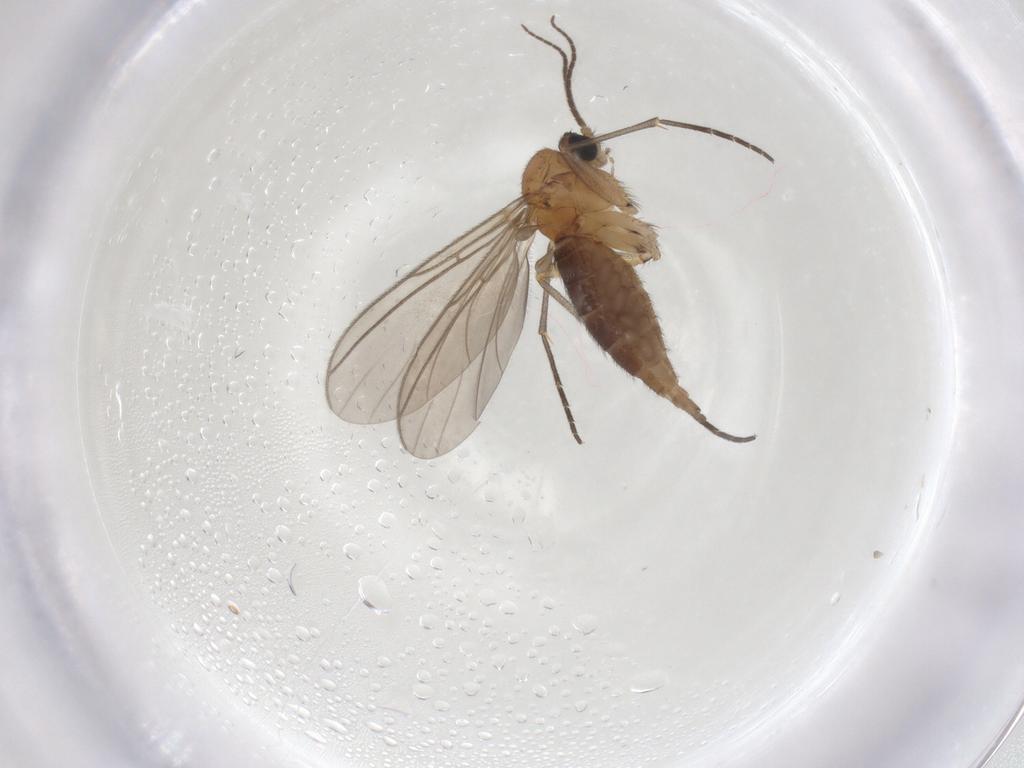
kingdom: Animalia
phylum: Arthropoda
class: Insecta
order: Diptera
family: Sciaridae
